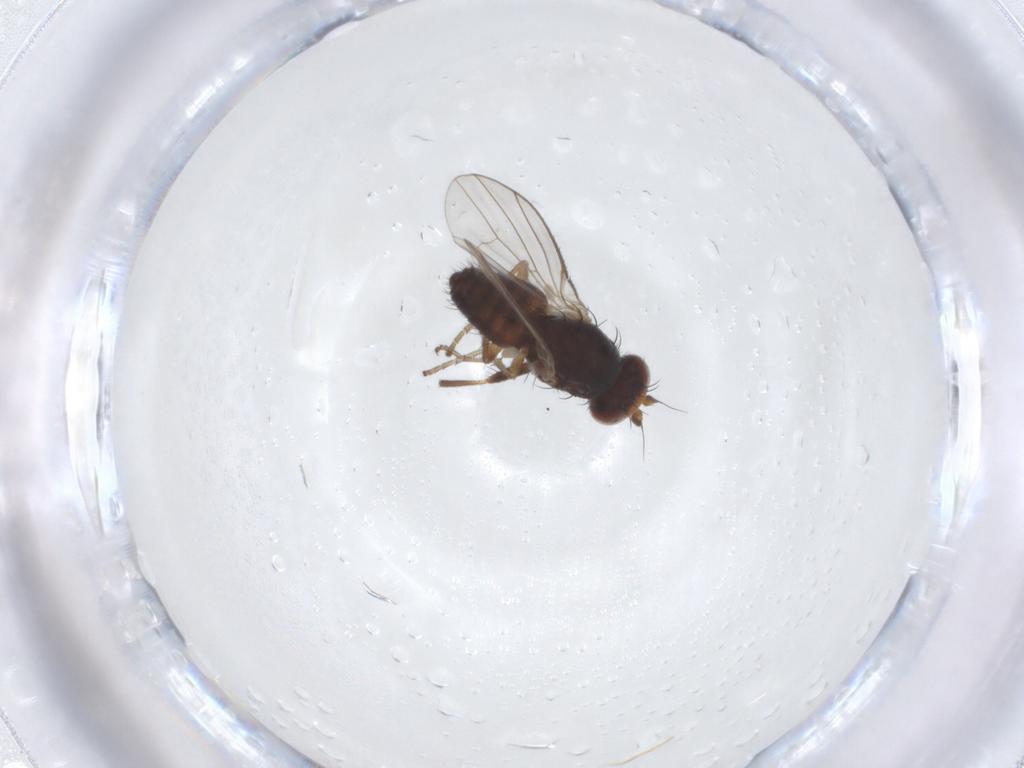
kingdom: Animalia
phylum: Arthropoda
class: Insecta
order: Diptera
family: Heleomyzidae
